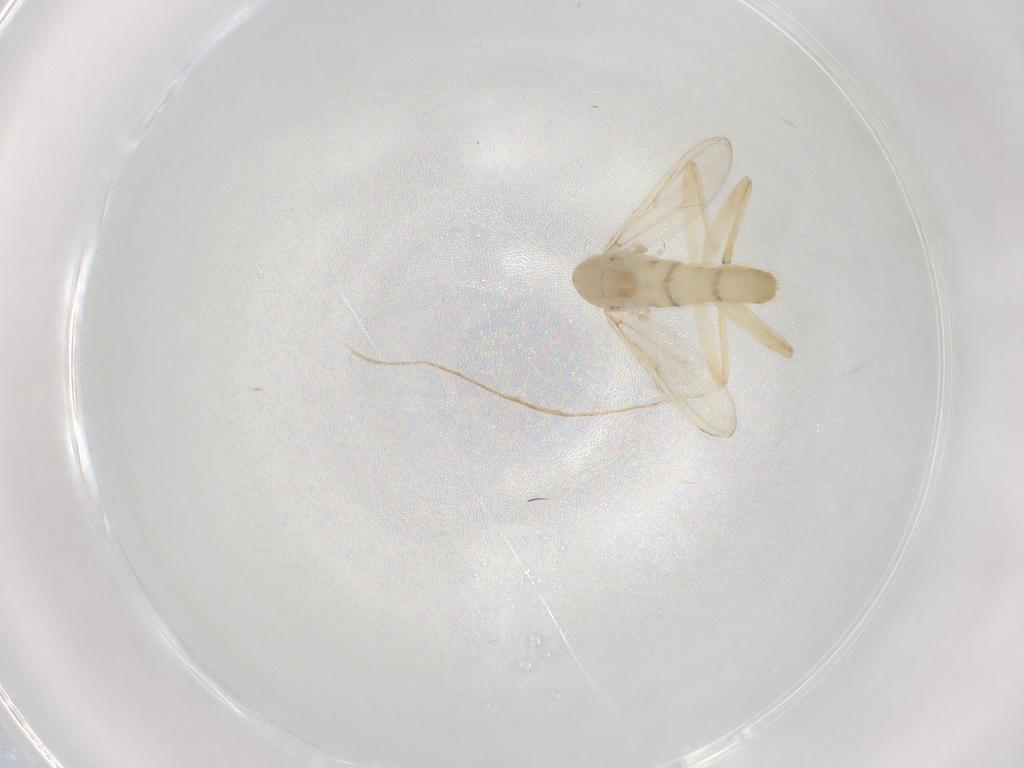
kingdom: Animalia
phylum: Arthropoda
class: Insecta
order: Diptera
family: Chironomidae
